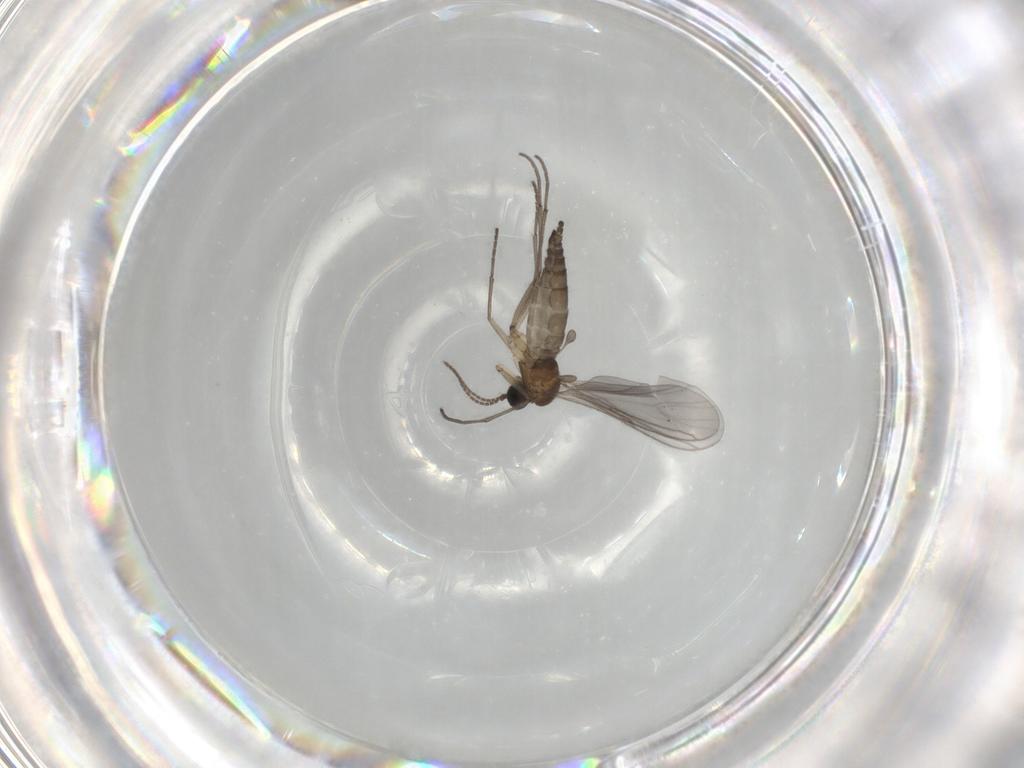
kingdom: Animalia
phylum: Arthropoda
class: Insecta
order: Diptera
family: Sciaridae
